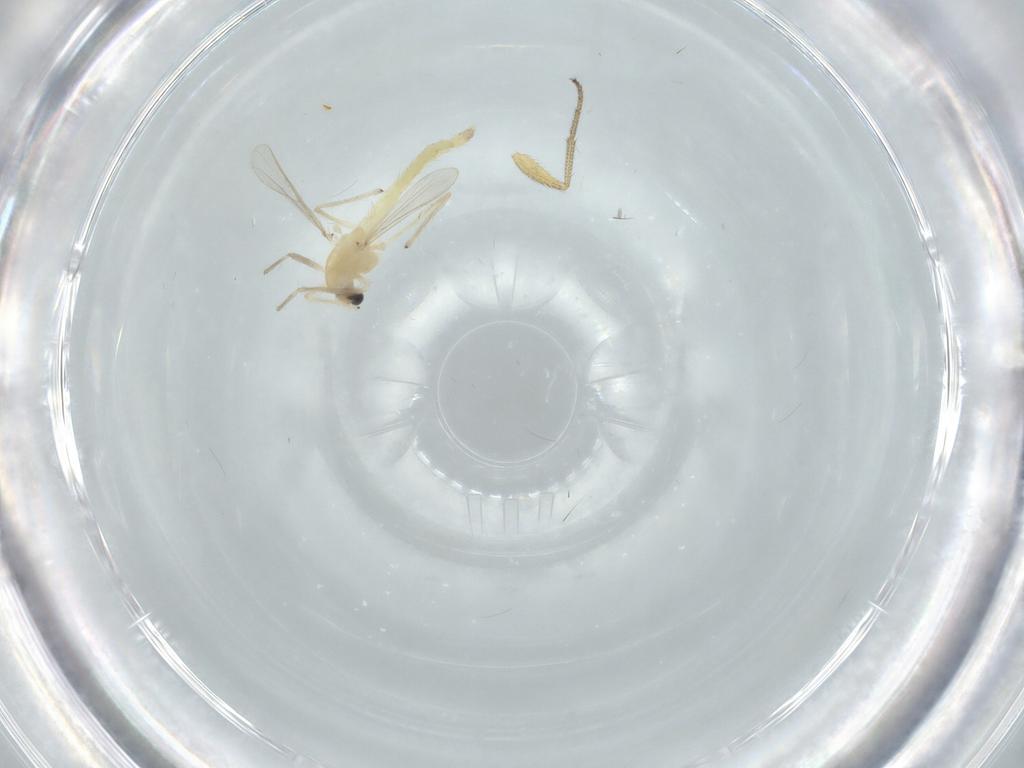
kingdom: Animalia
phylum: Arthropoda
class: Insecta
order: Diptera
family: Chironomidae
